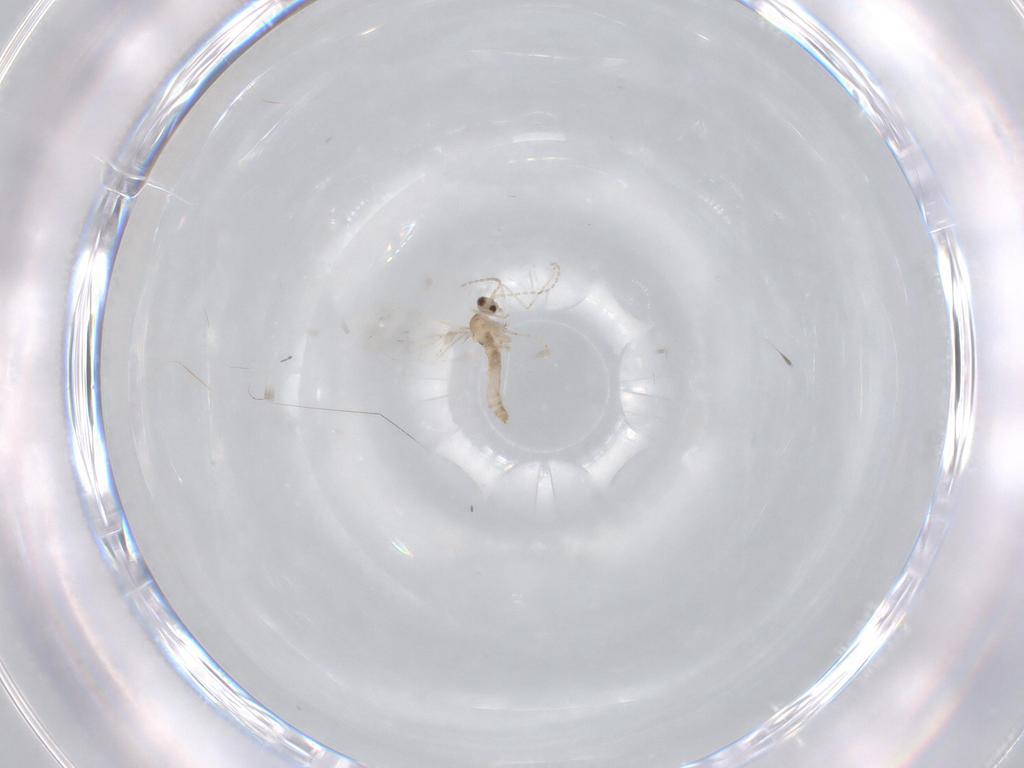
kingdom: Animalia
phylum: Arthropoda
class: Insecta
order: Diptera
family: Cecidomyiidae
